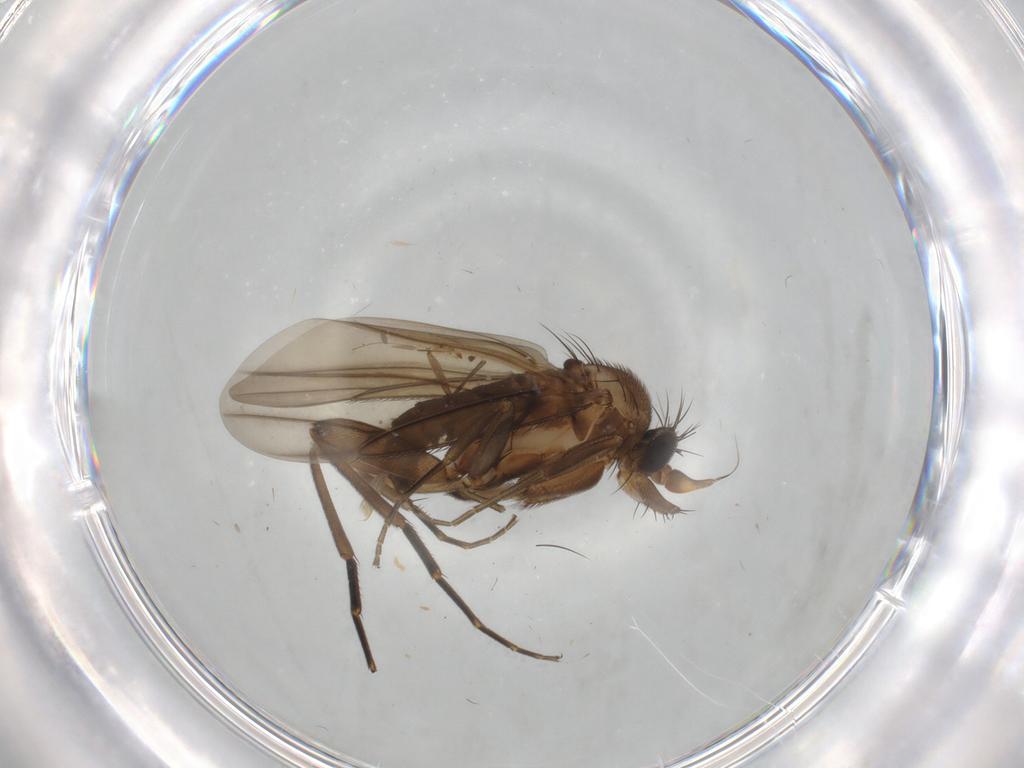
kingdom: Animalia
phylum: Arthropoda
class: Insecta
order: Diptera
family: Phoridae
